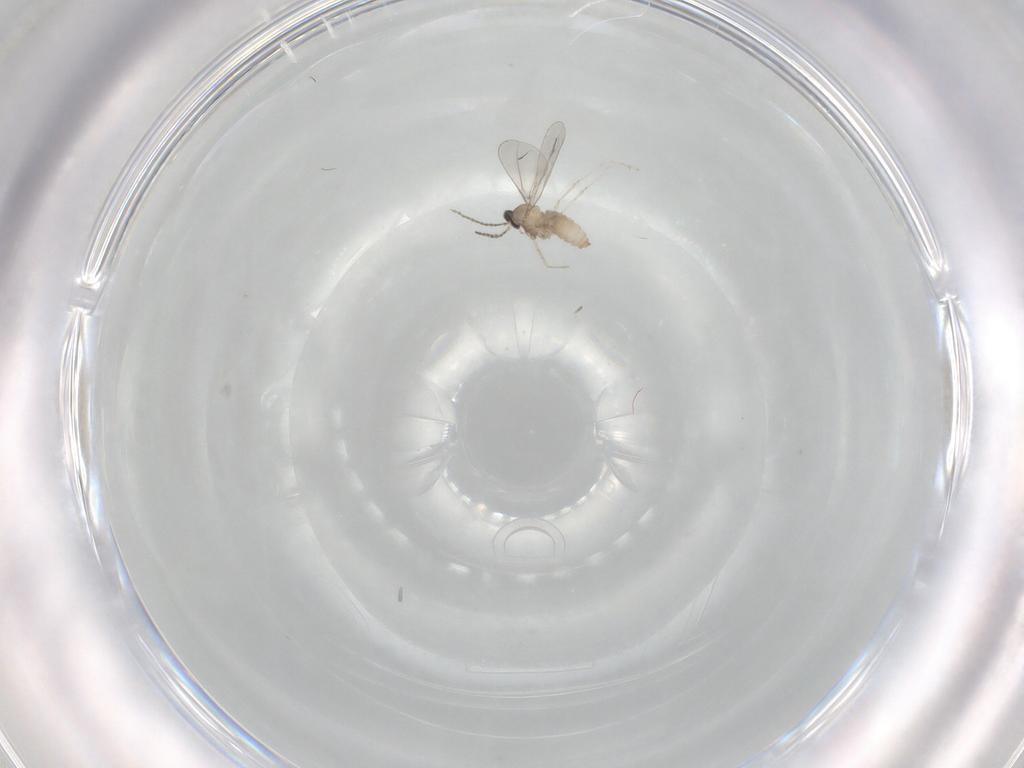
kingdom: Animalia
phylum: Arthropoda
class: Insecta
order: Diptera
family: Cecidomyiidae
